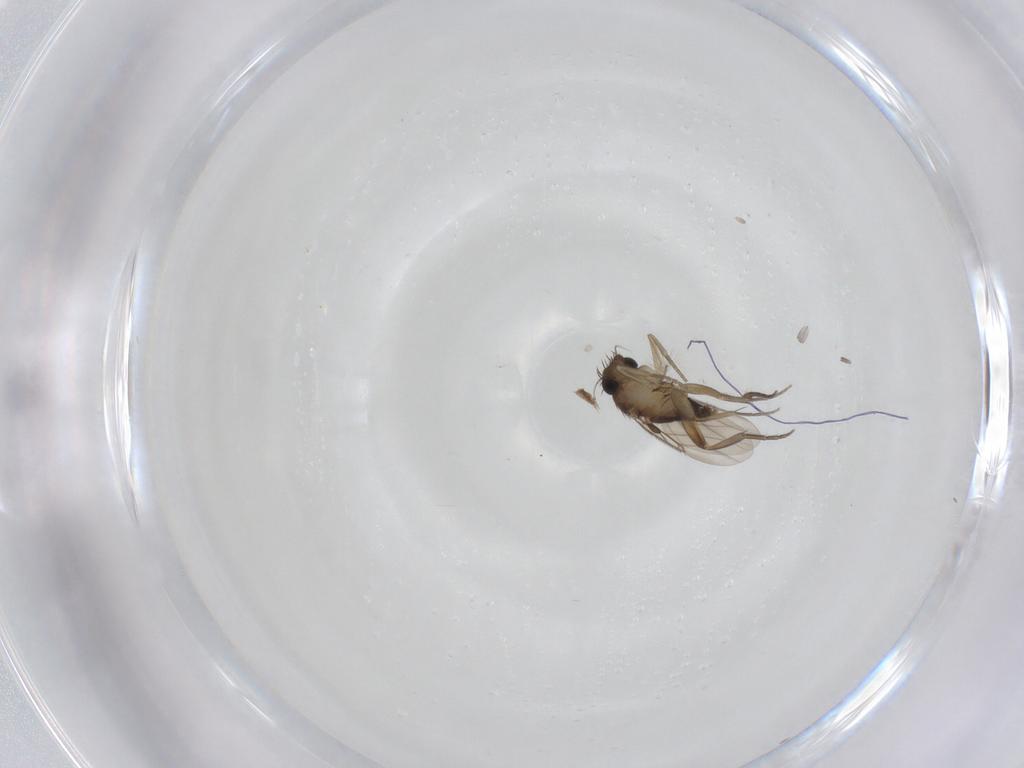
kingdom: Animalia
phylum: Arthropoda
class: Insecta
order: Diptera
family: Phoridae
